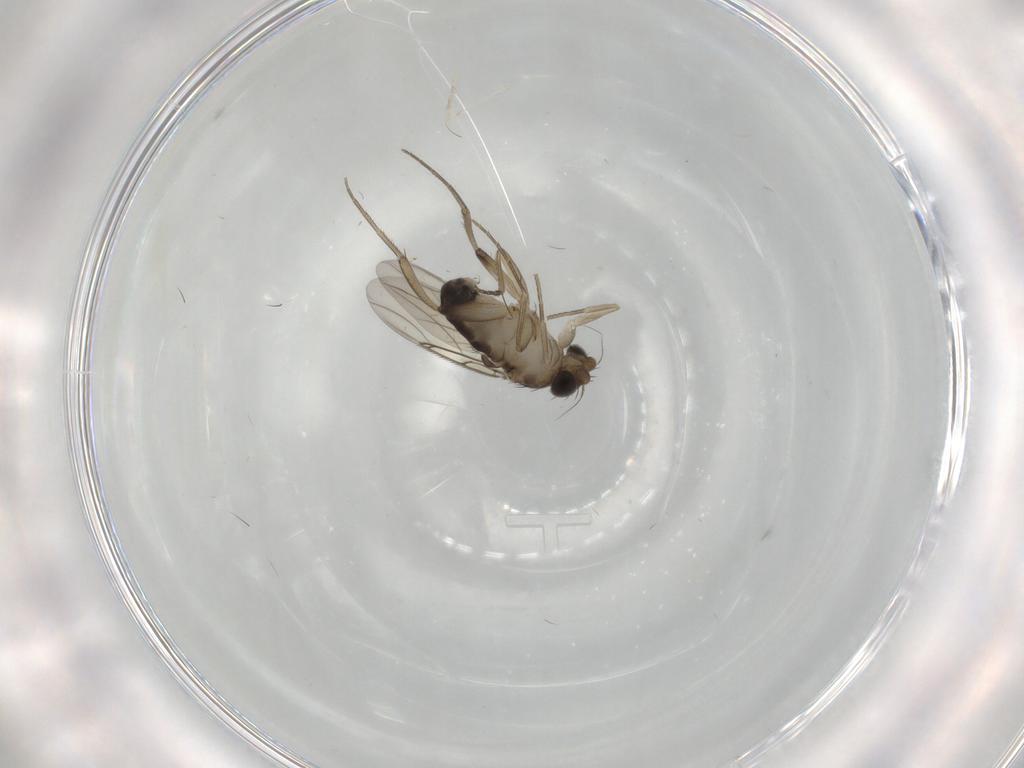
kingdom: Animalia
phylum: Arthropoda
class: Insecta
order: Diptera
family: Phoridae
